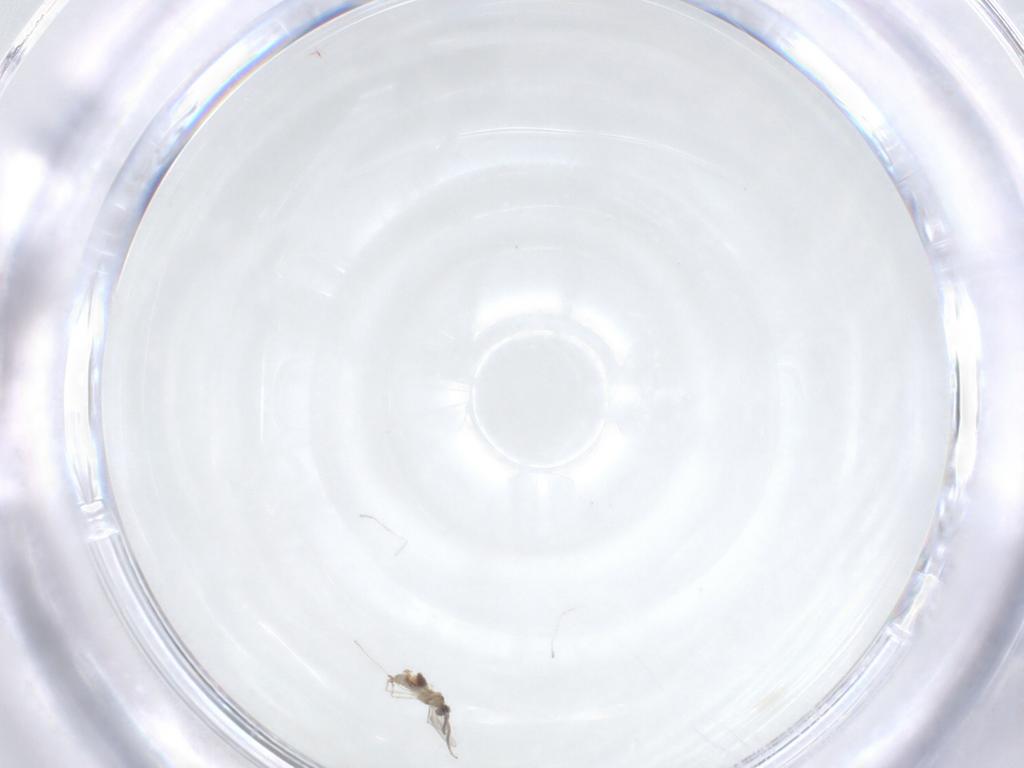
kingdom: Animalia
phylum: Arthropoda
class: Insecta
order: Diptera
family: Cecidomyiidae
